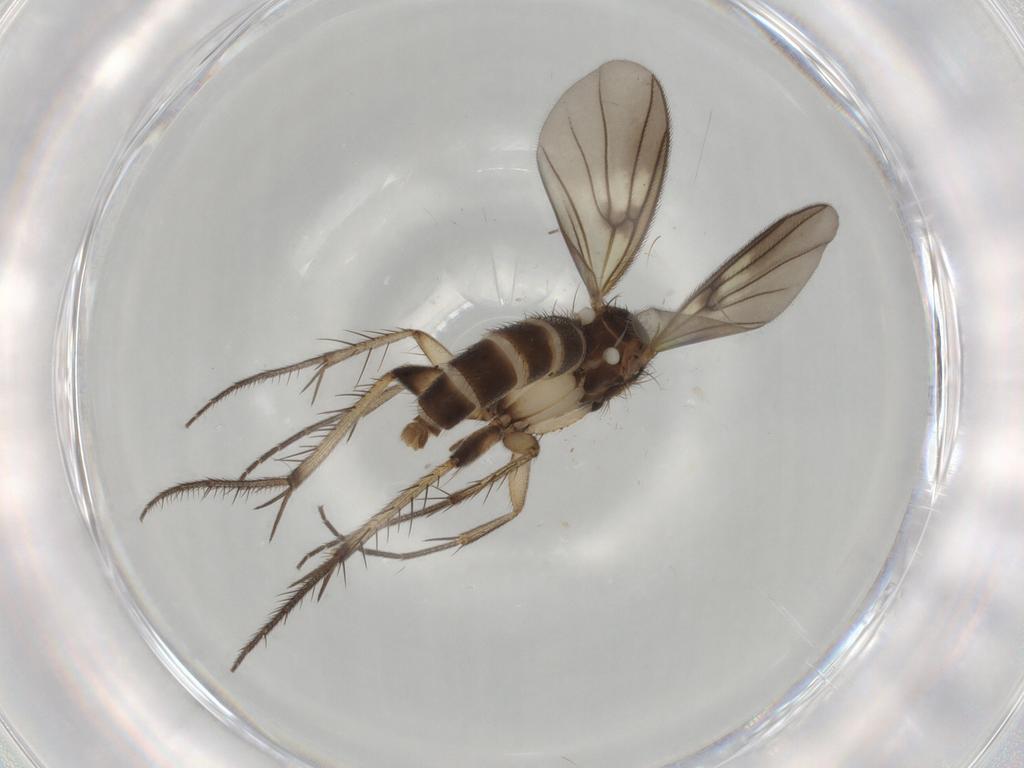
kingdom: Animalia
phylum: Arthropoda
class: Insecta
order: Diptera
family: Mycetophilidae
